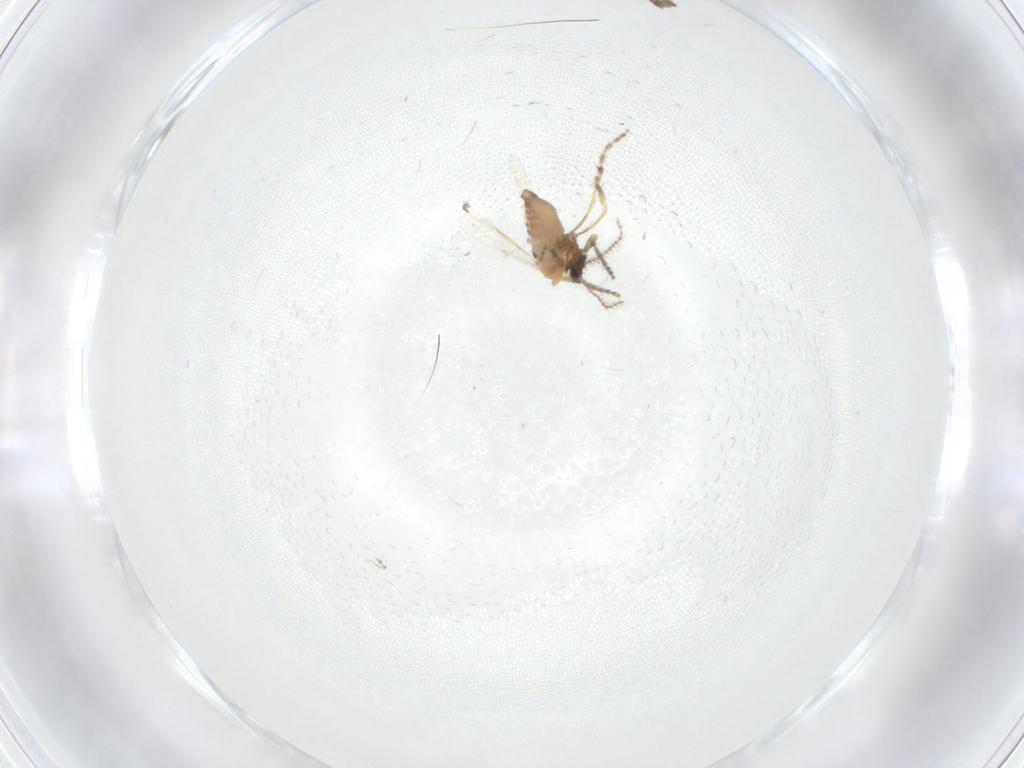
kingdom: Animalia
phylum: Arthropoda
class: Insecta
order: Diptera
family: Cecidomyiidae
